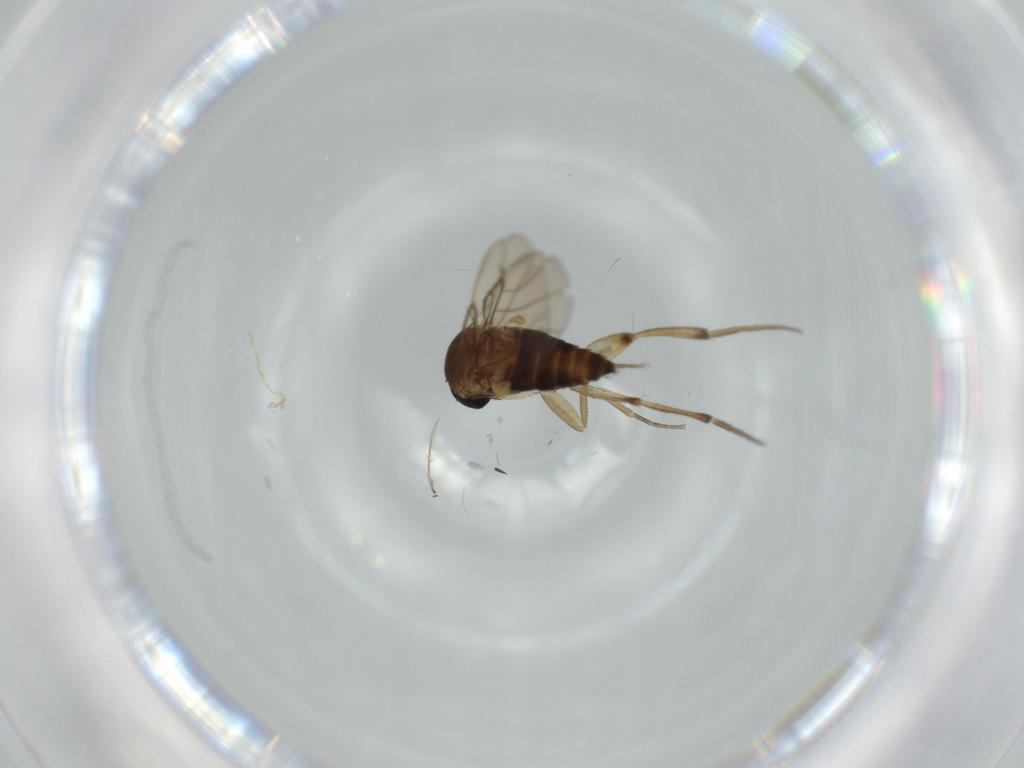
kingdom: Animalia
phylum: Arthropoda
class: Insecta
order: Diptera
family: Phoridae
